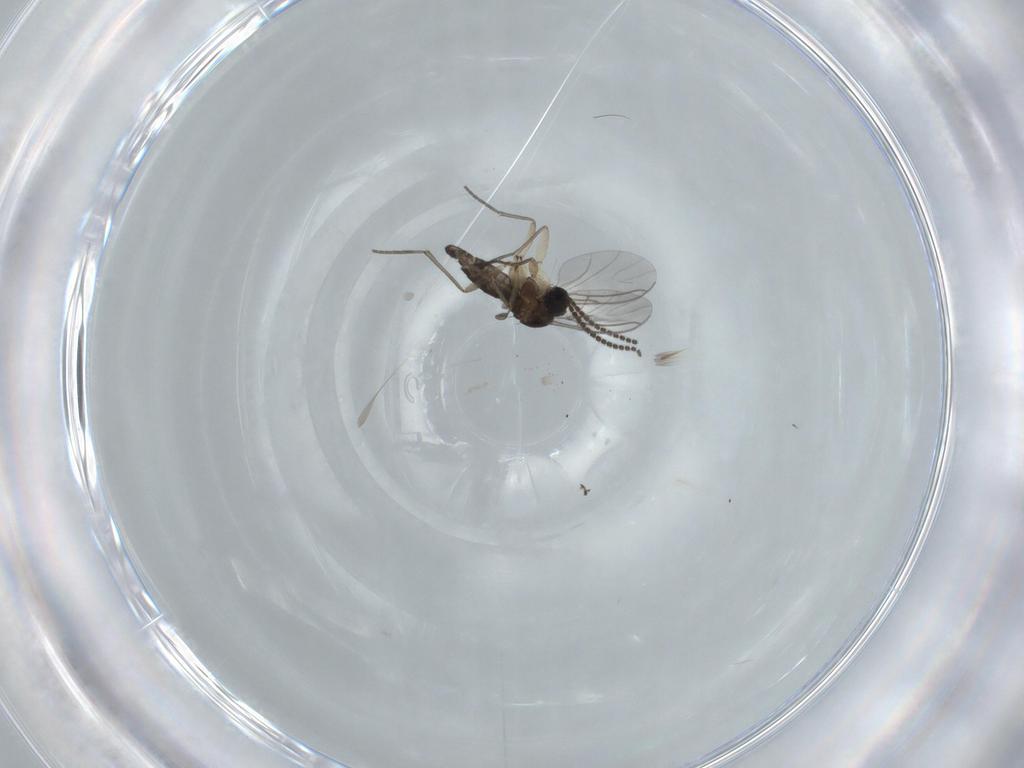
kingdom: Animalia
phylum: Arthropoda
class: Insecta
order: Diptera
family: Sciaridae
